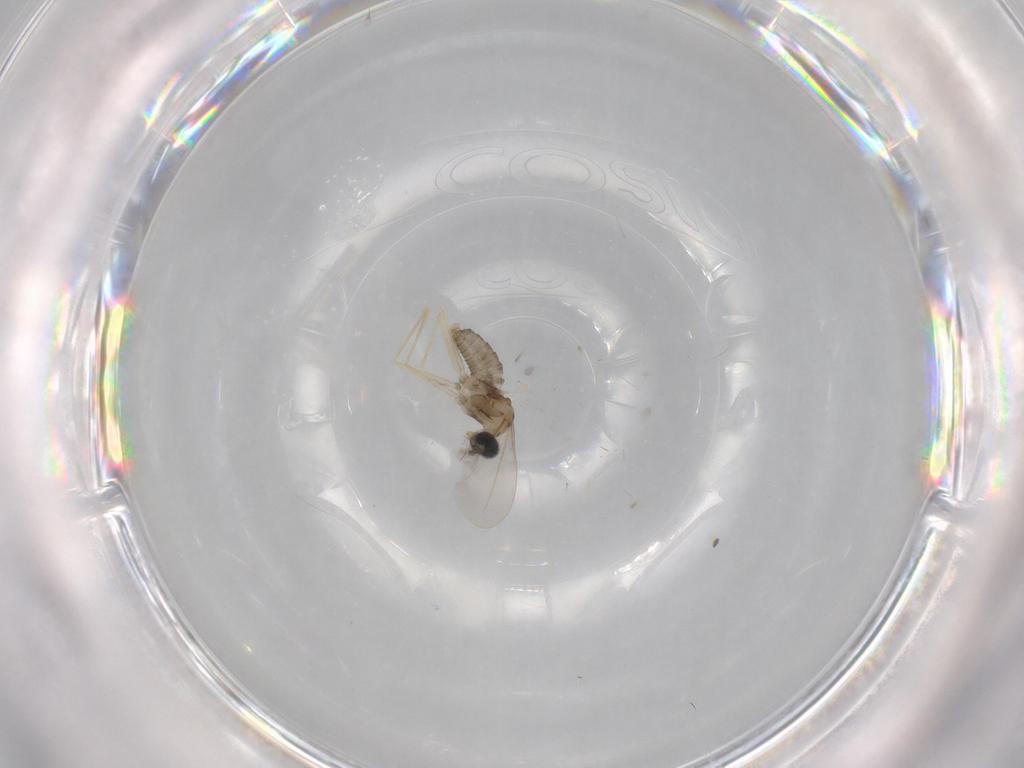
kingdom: Animalia
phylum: Arthropoda
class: Insecta
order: Diptera
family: Cecidomyiidae
